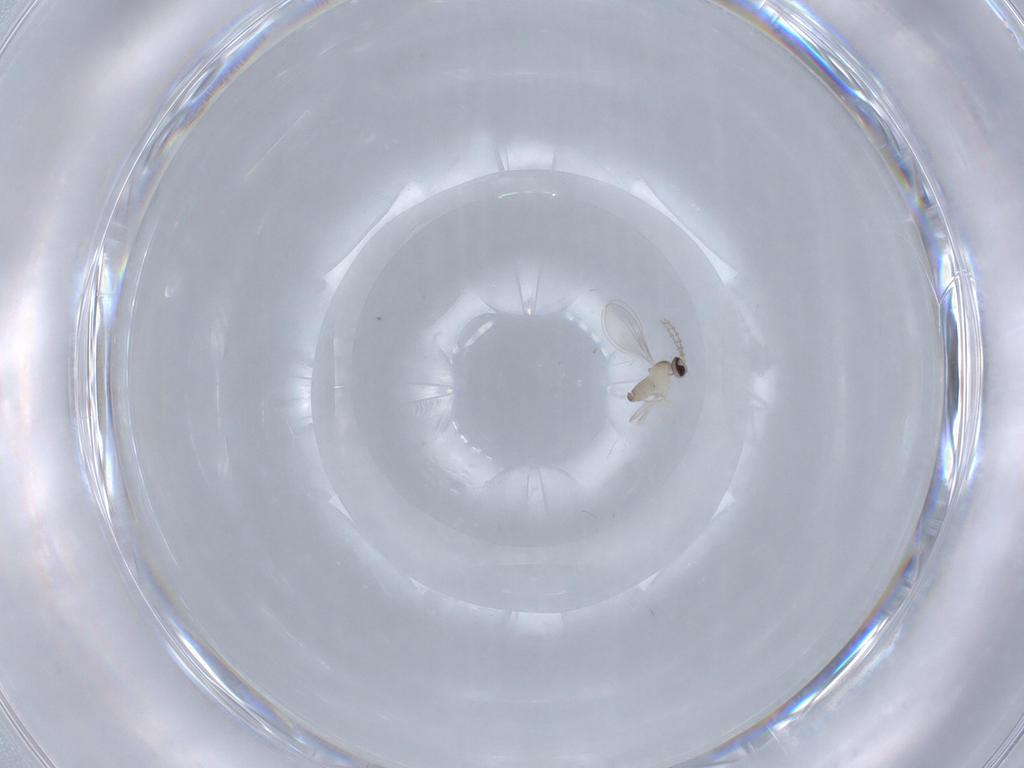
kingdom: Animalia
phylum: Arthropoda
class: Insecta
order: Diptera
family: Cecidomyiidae
